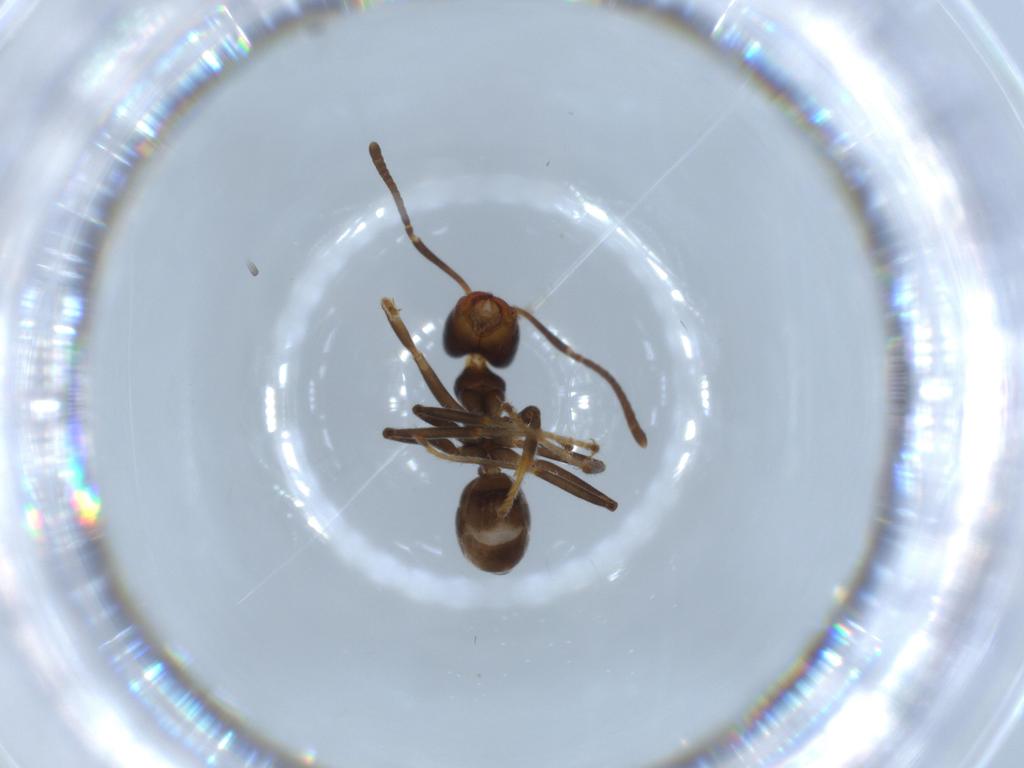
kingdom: Animalia
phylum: Arthropoda
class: Insecta
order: Hymenoptera
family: Formicidae
